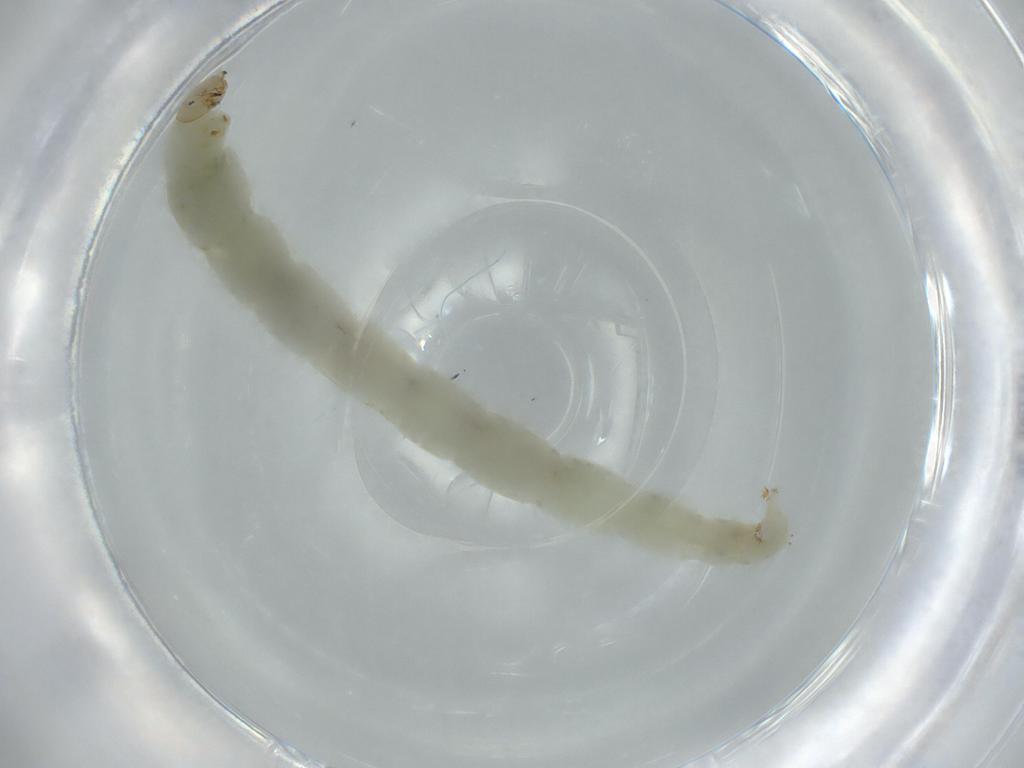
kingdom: Animalia
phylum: Arthropoda
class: Insecta
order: Diptera
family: Chironomidae
